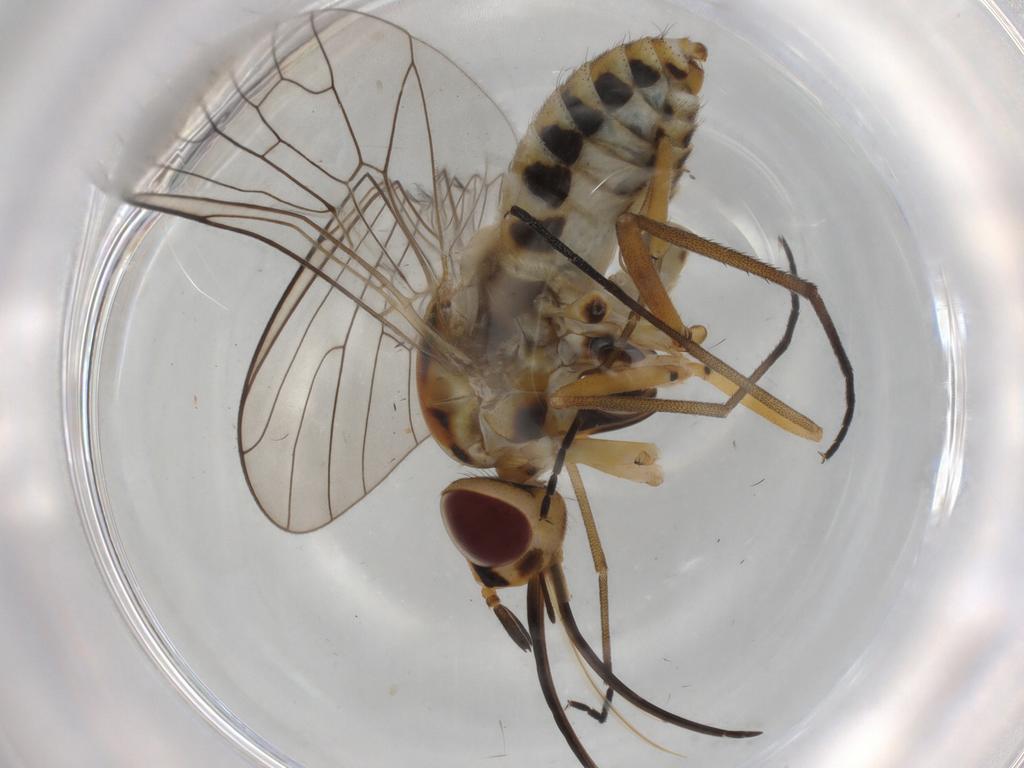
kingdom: Animalia
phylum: Arthropoda
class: Insecta
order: Diptera
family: Bombyliidae
